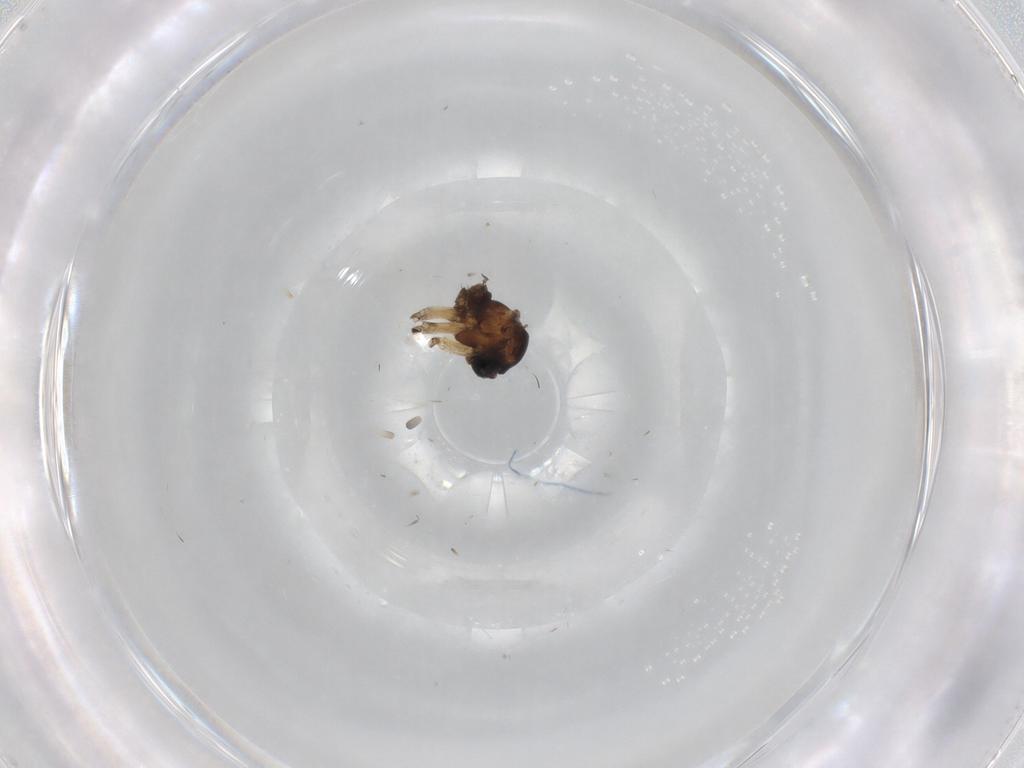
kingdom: Animalia
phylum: Arthropoda
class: Insecta
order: Diptera
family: Sciaridae
